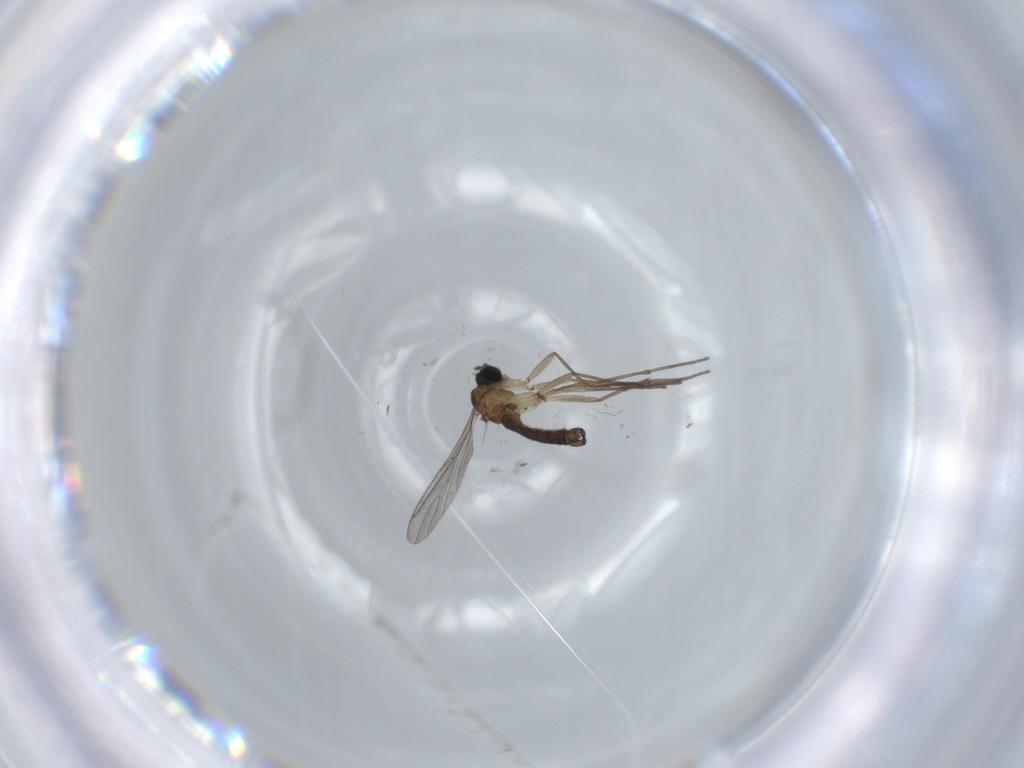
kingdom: Animalia
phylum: Arthropoda
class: Insecta
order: Diptera
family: Sciaridae
